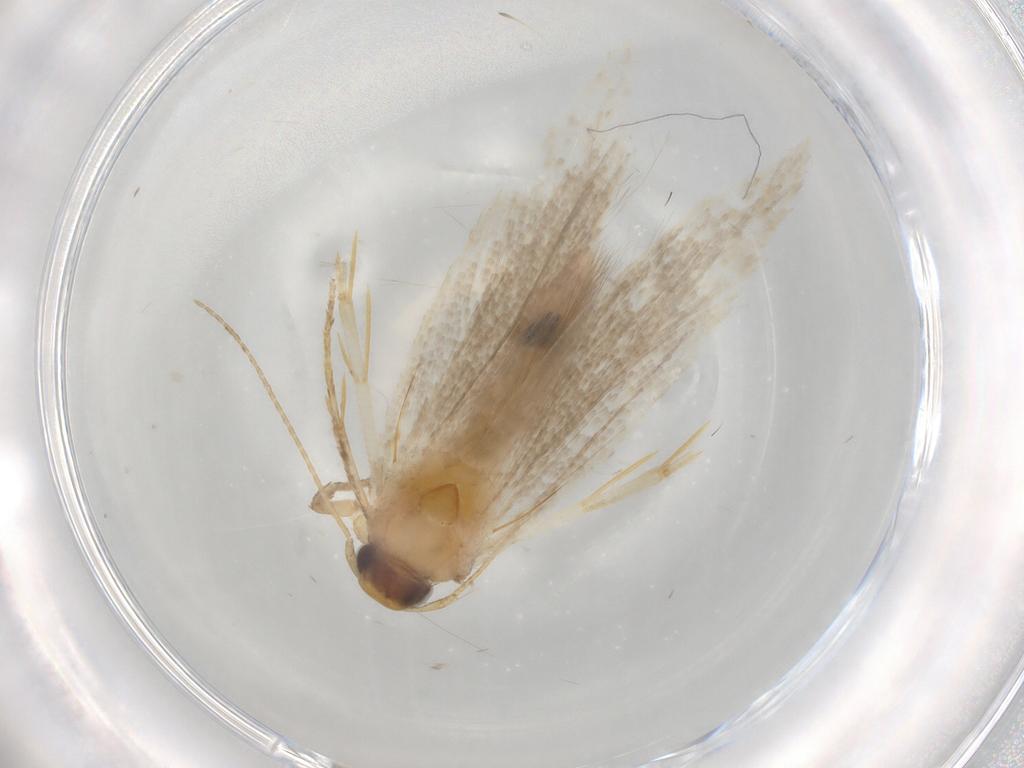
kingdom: Animalia
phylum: Arthropoda
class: Insecta
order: Lepidoptera
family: Gelechiidae
